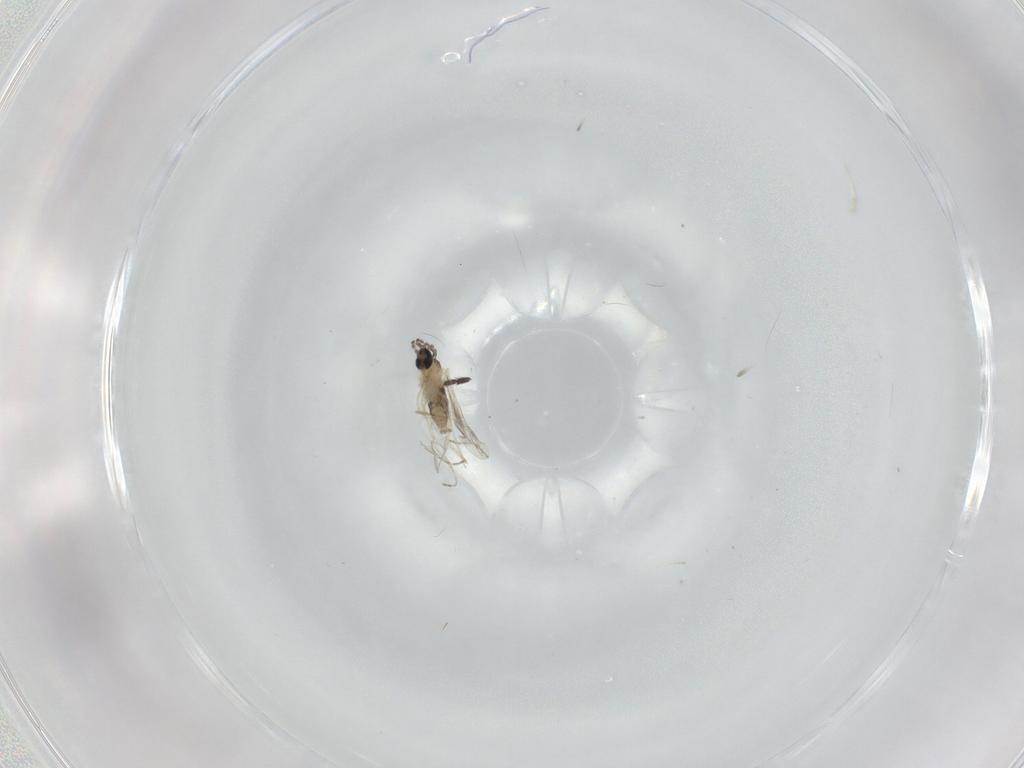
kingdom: Animalia
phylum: Arthropoda
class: Insecta
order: Diptera
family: Cecidomyiidae
